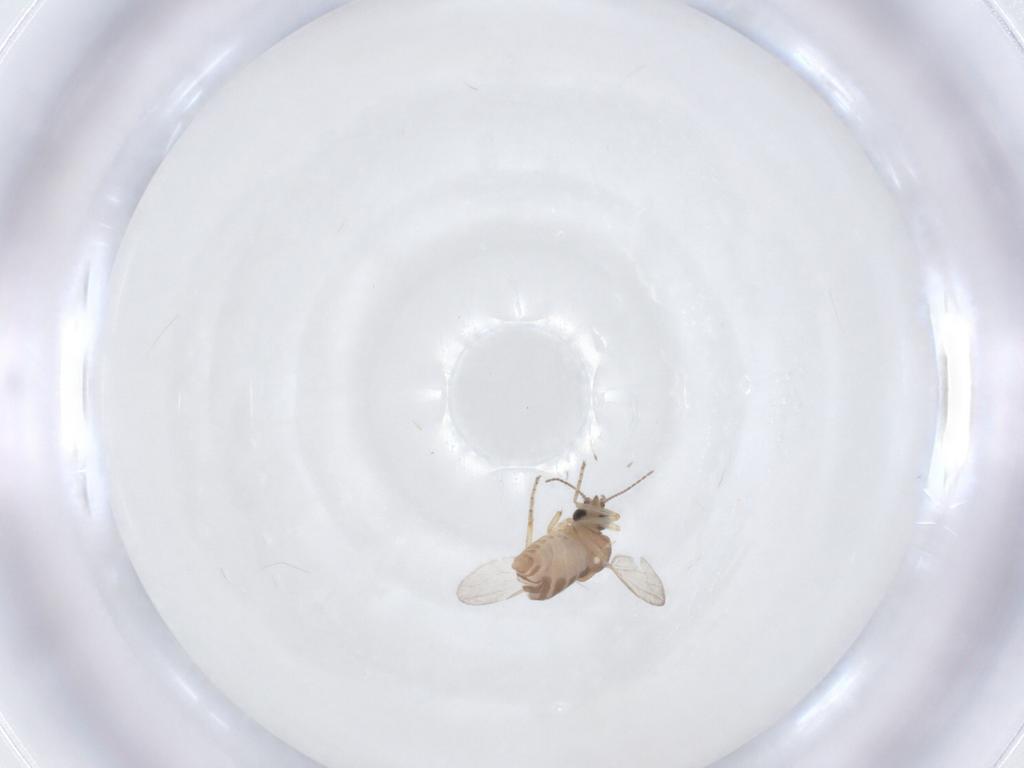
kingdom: Animalia
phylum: Arthropoda
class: Insecta
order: Diptera
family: Ceratopogonidae
